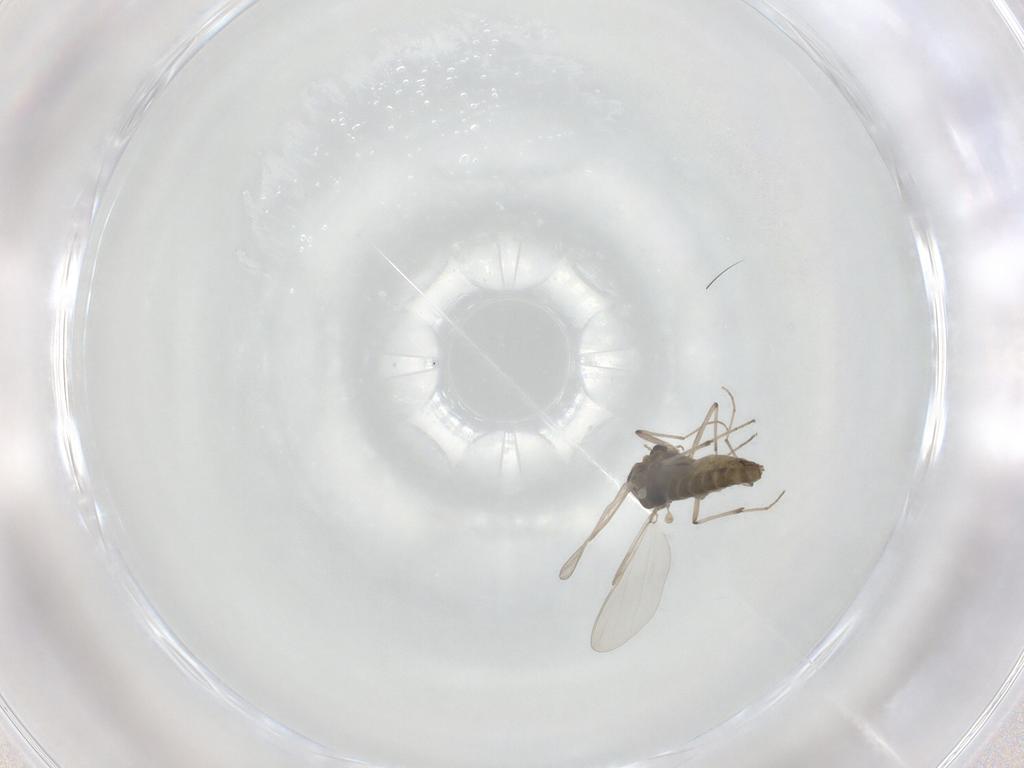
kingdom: Animalia
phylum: Arthropoda
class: Insecta
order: Diptera
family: Chironomidae
